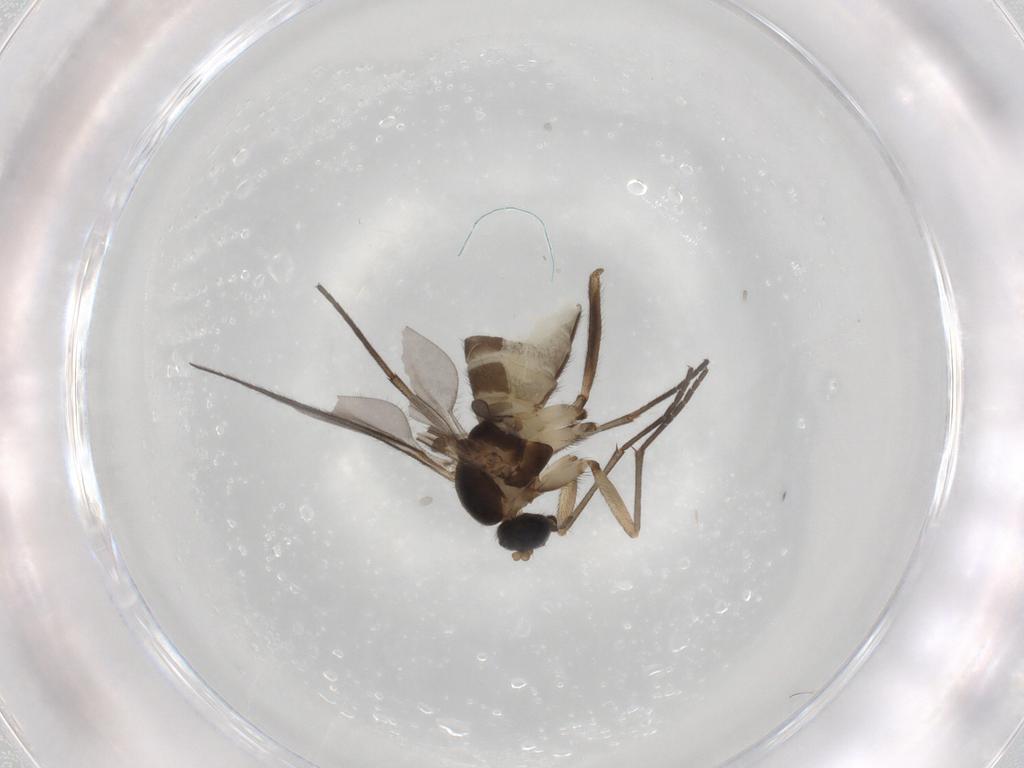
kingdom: Animalia
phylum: Arthropoda
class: Insecta
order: Diptera
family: Sciaridae
